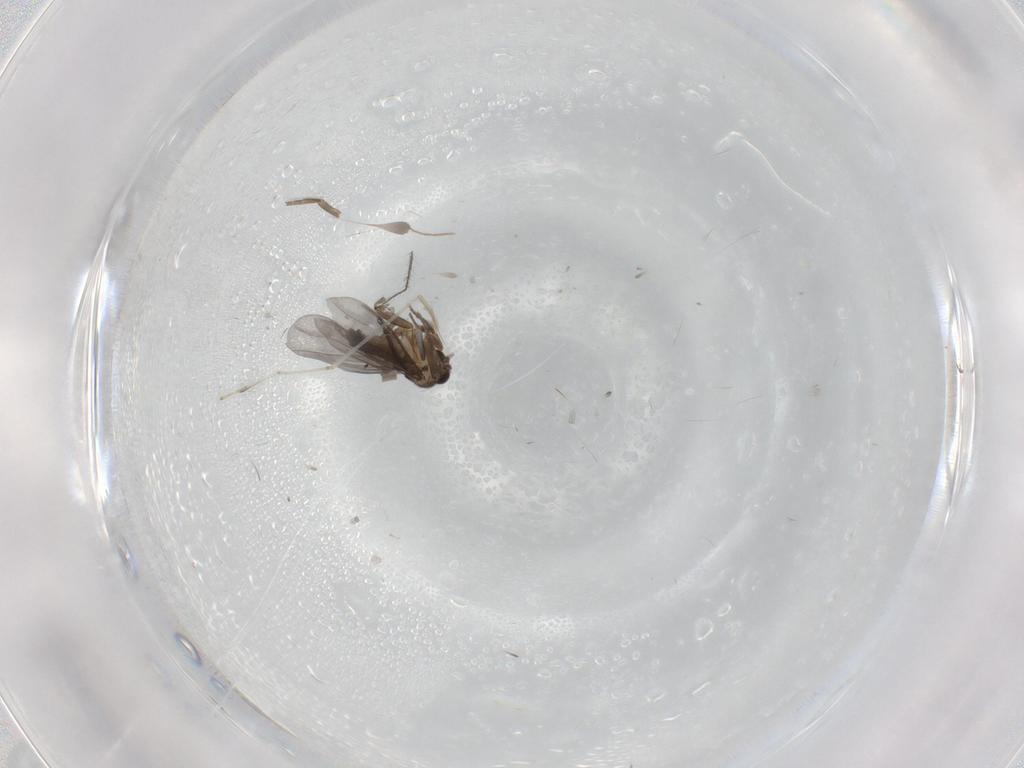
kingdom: Animalia
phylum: Arthropoda
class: Insecta
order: Diptera
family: Cecidomyiidae
